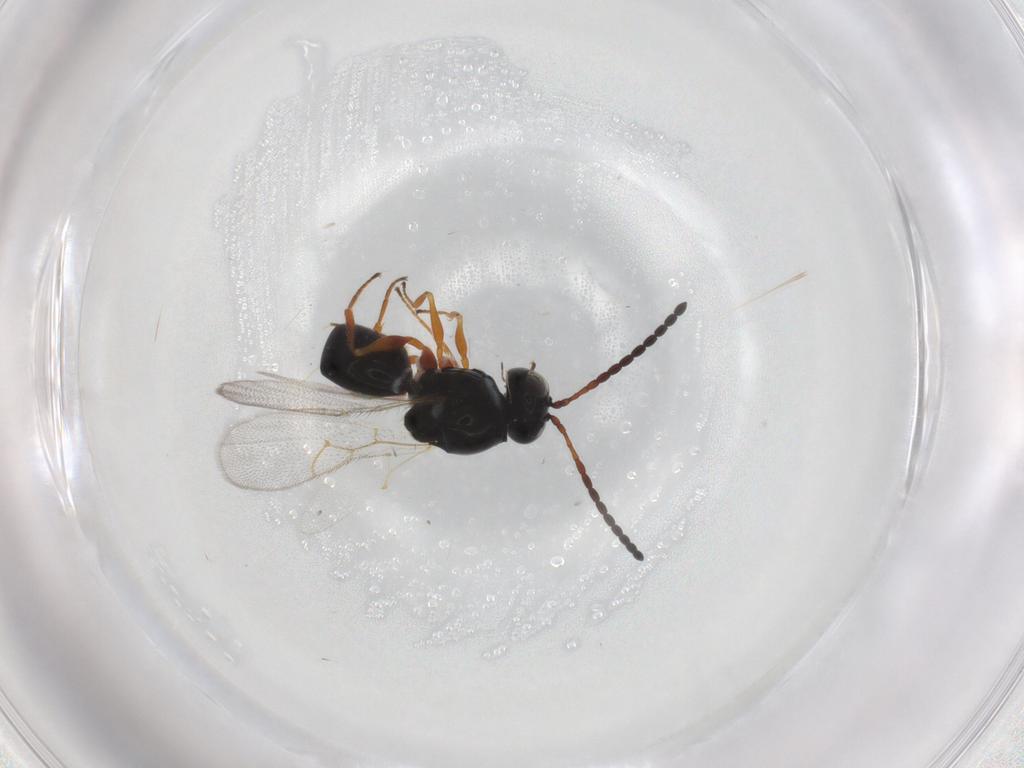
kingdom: Animalia
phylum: Arthropoda
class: Insecta
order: Hymenoptera
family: Figitidae
